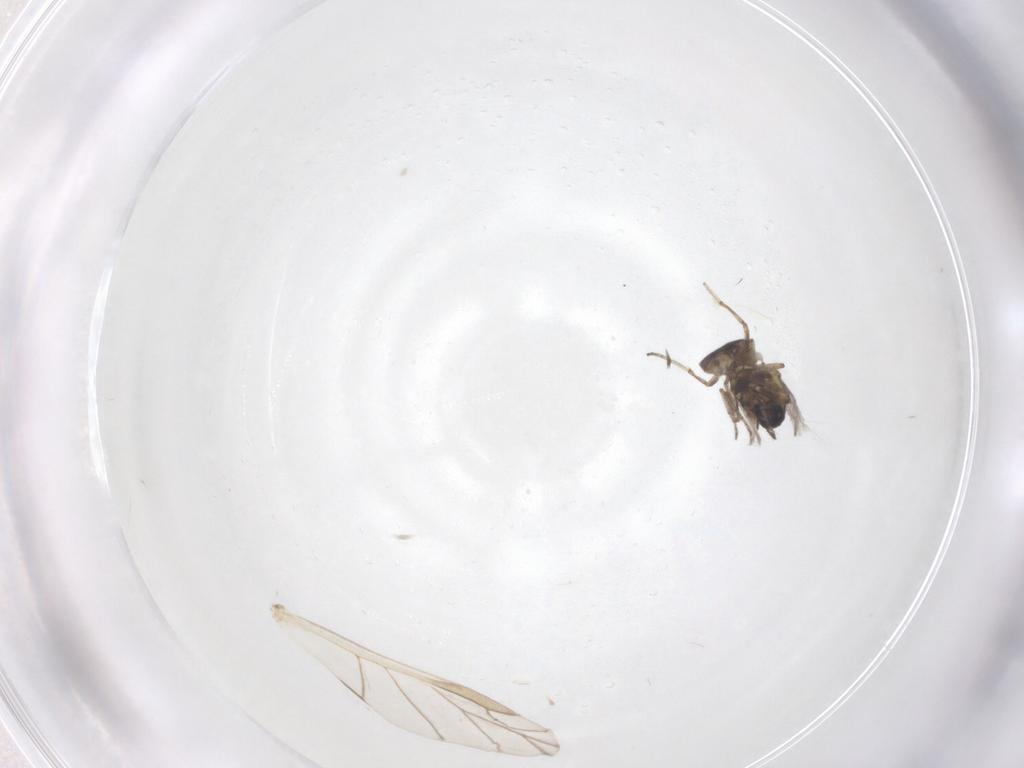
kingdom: Animalia
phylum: Arthropoda
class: Insecta
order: Diptera
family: Ceratopogonidae
